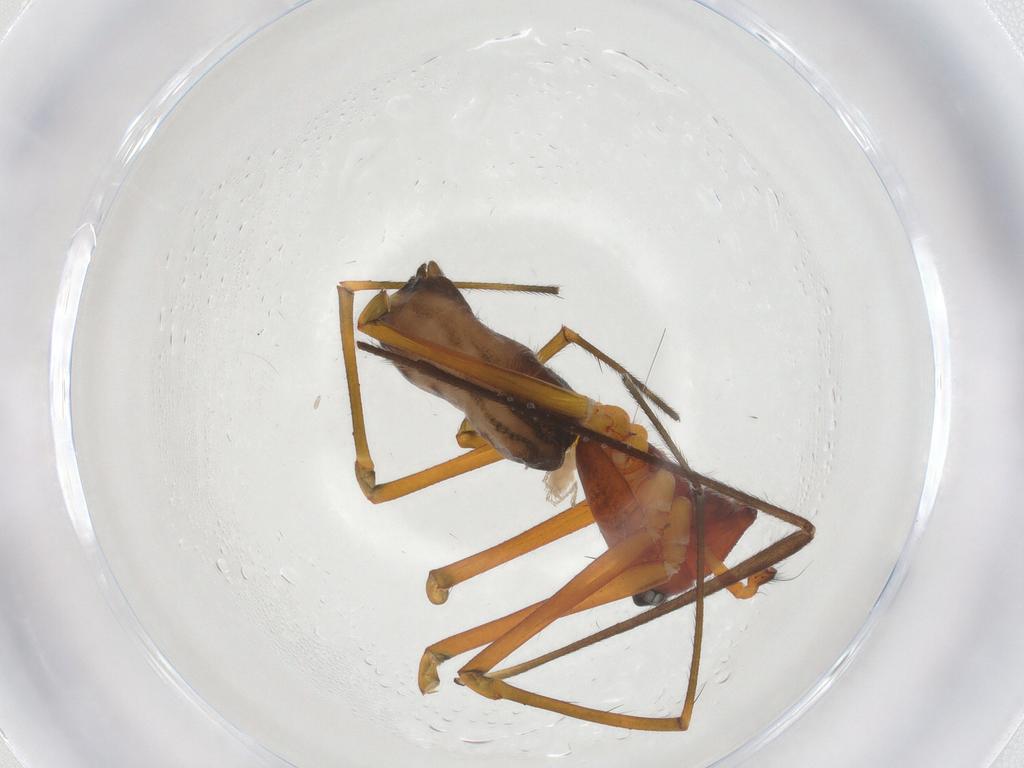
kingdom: Animalia
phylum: Arthropoda
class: Arachnida
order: Araneae
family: Linyphiidae
